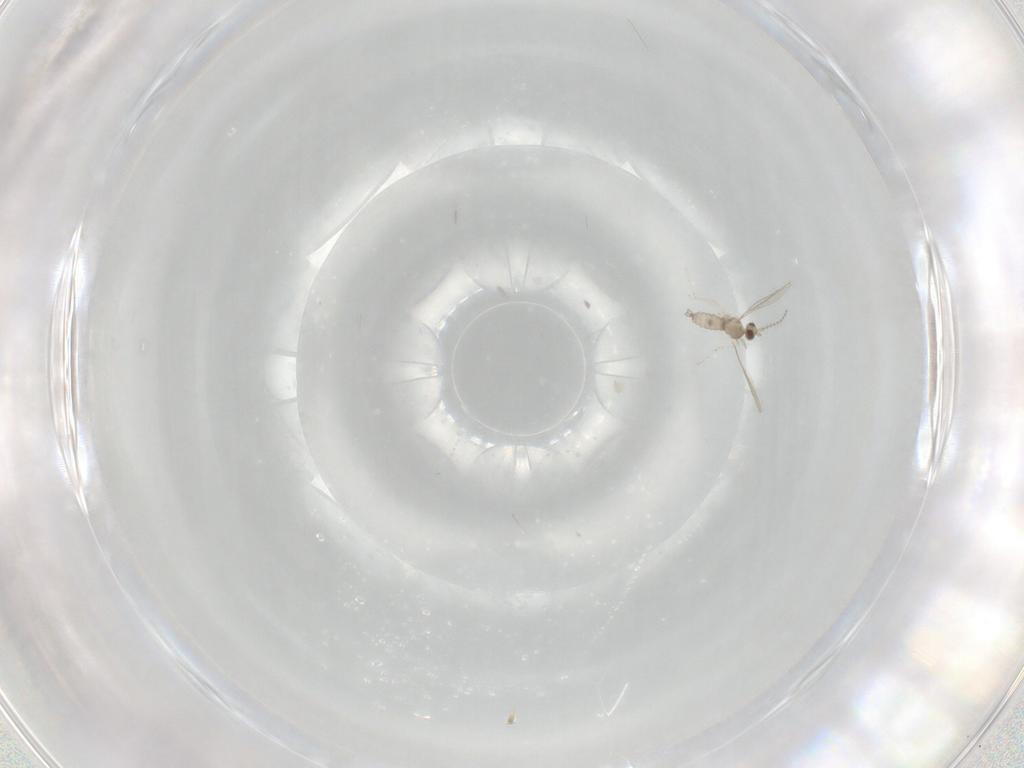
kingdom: Animalia
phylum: Arthropoda
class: Insecta
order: Diptera
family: Cecidomyiidae
